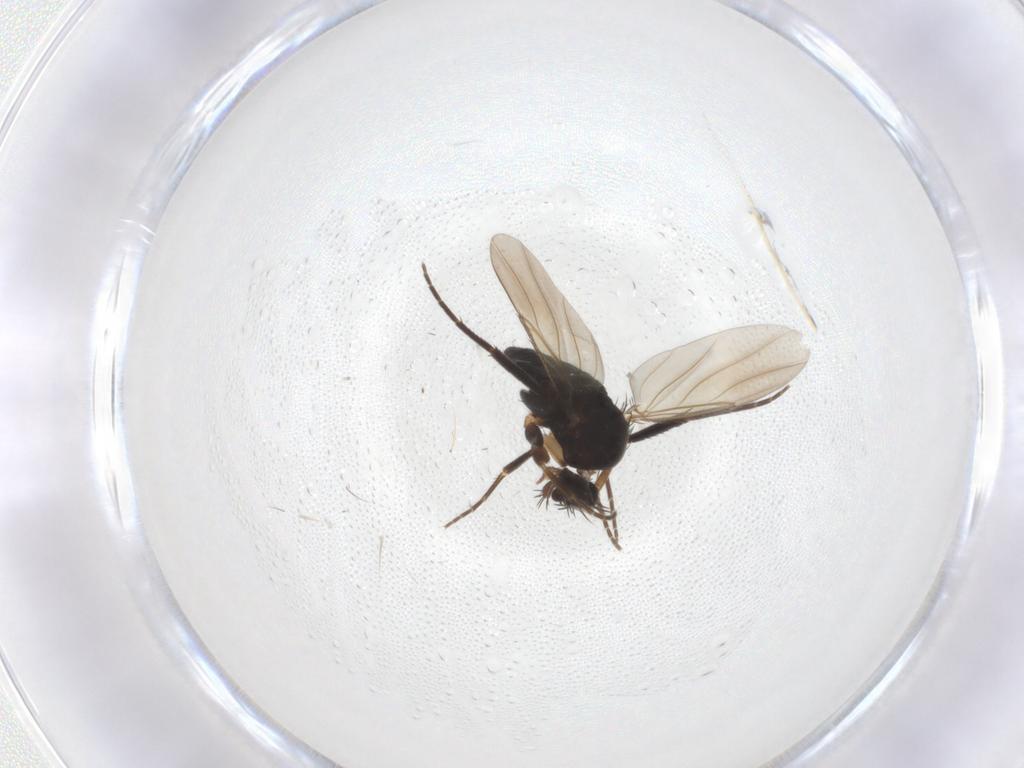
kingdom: Animalia
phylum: Arthropoda
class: Insecta
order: Diptera
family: Phoridae
